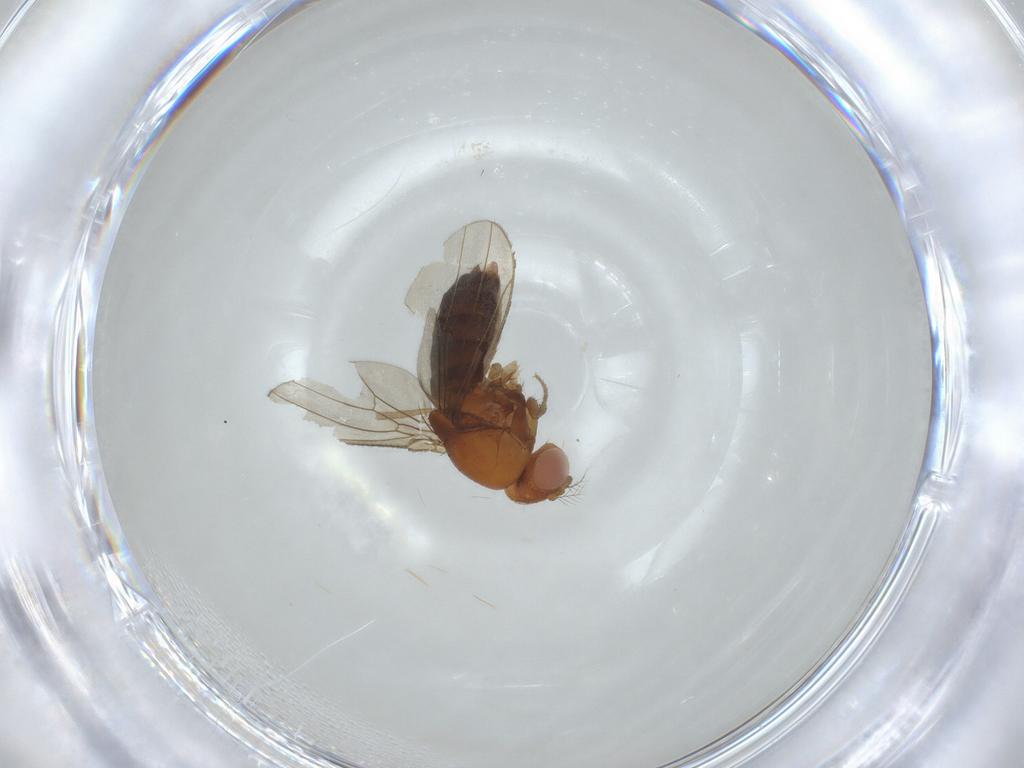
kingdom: Animalia
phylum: Arthropoda
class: Insecta
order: Diptera
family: Drosophilidae
